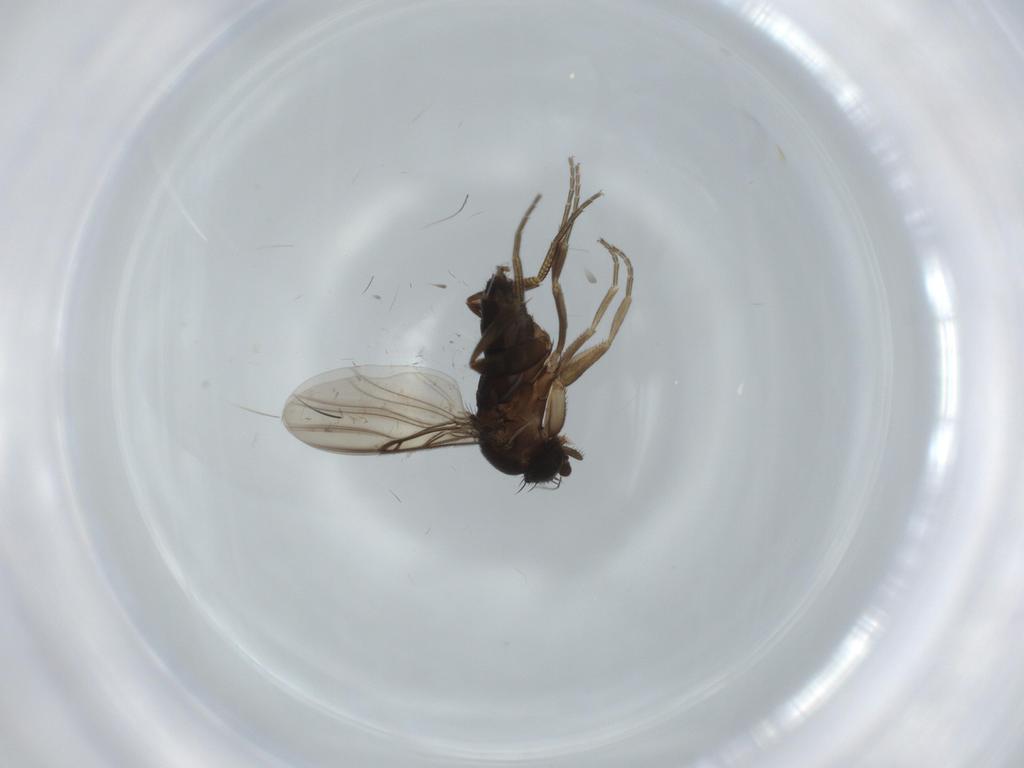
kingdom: Animalia
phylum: Arthropoda
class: Insecta
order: Diptera
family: Phoridae
